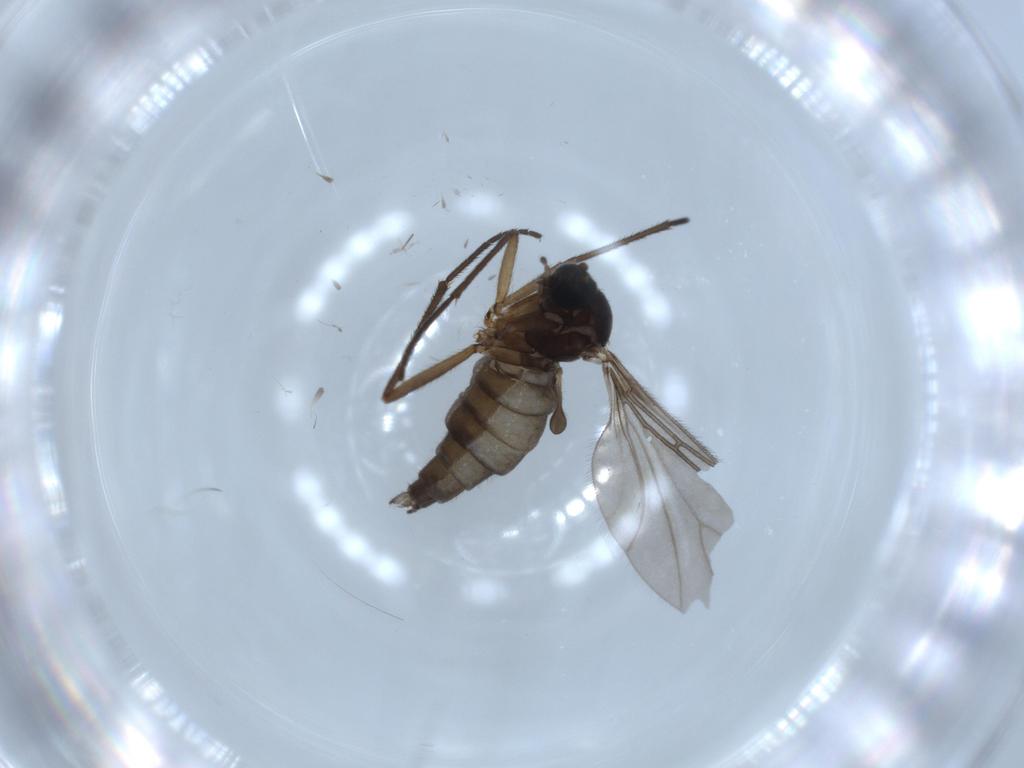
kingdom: Animalia
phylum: Arthropoda
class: Insecta
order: Diptera
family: Sciaridae
